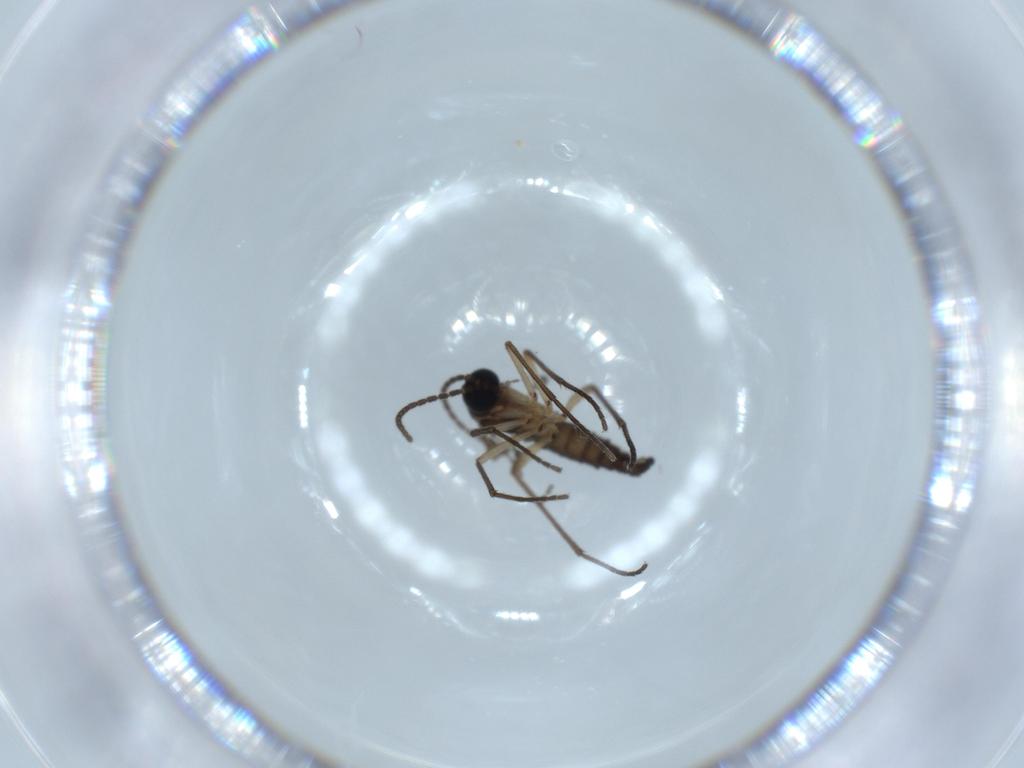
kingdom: Animalia
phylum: Arthropoda
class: Insecta
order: Diptera
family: Sciaridae
